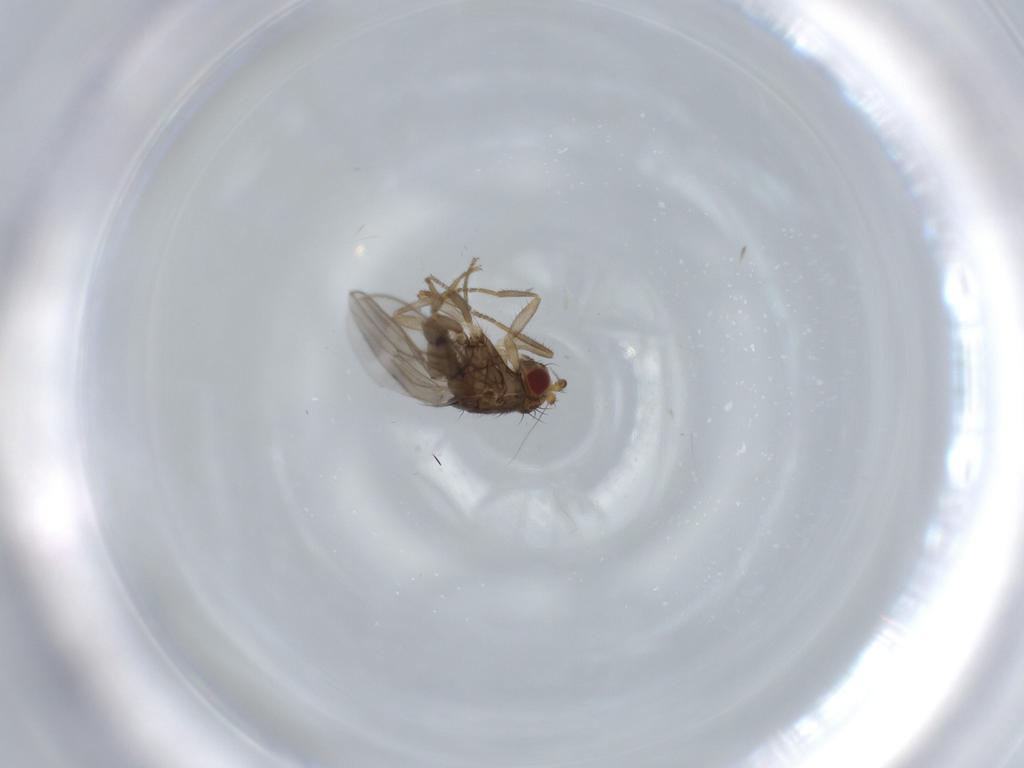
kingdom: Animalia
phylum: Arthropoda
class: Insecta
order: Diptera
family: Sphaeroceridae
